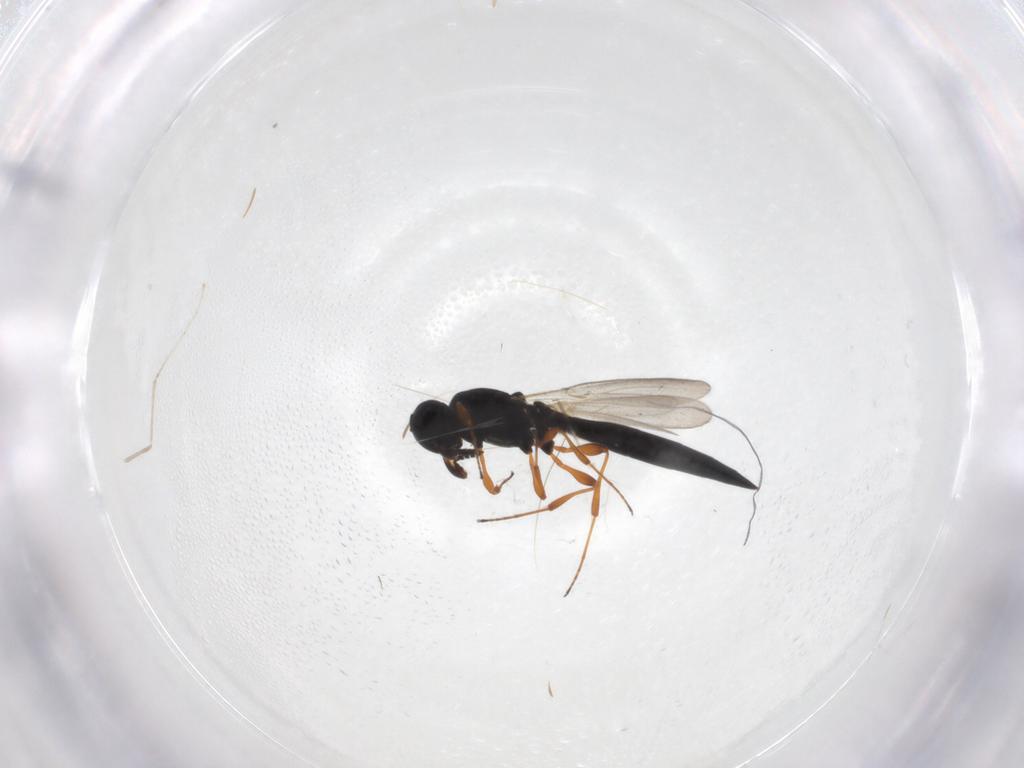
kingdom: Animalia
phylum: Arthropoda
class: Insecta
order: Hymenoptera
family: Platygastridae
